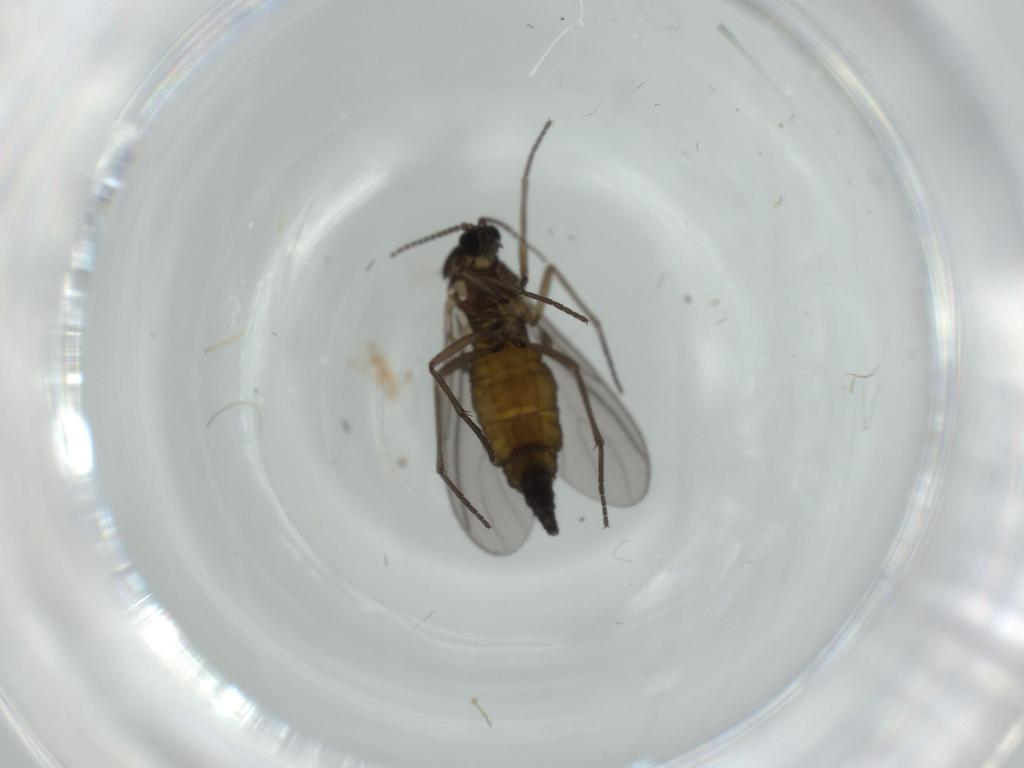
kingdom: Animalia
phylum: Arthropoda
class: Insecta
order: Diptera
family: Sciaridae
